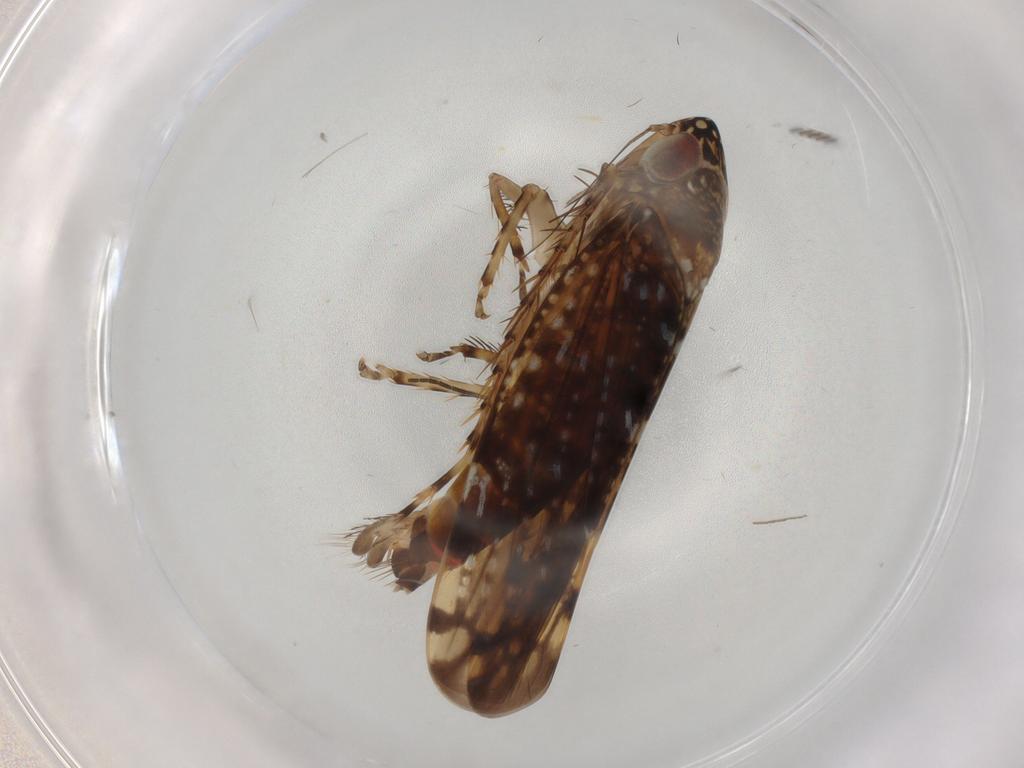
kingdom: Animalia
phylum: Arthropoda
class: Insecta
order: Hemiptera
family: Cicadellidae
